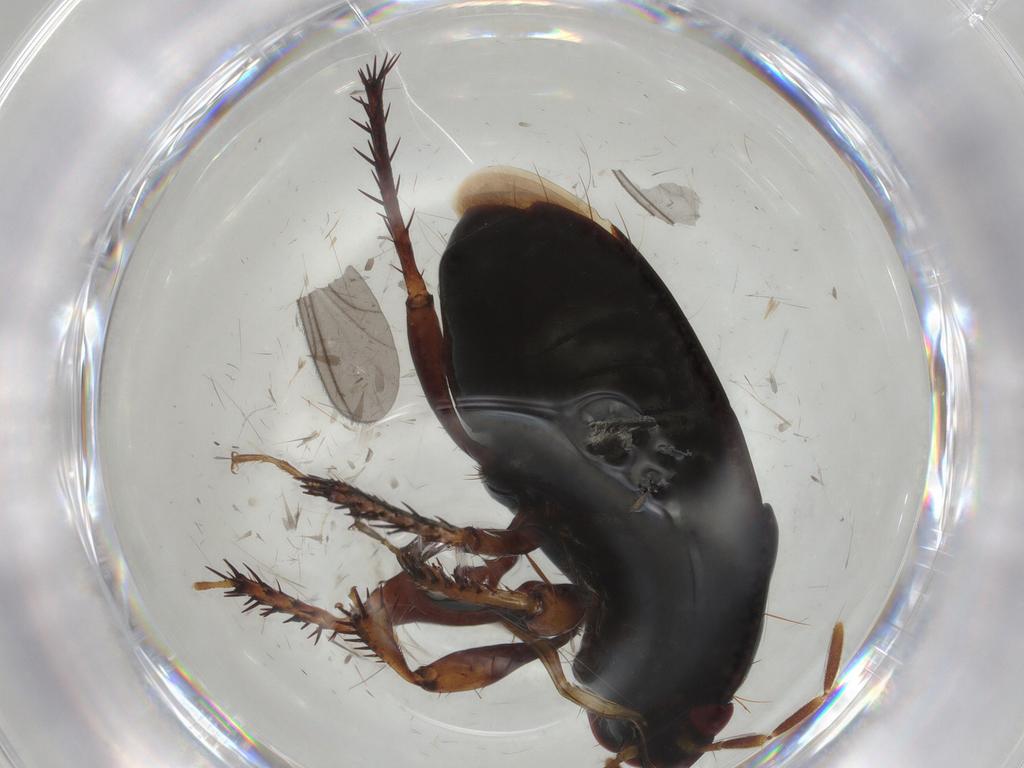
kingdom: Animalia
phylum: Arthropoda
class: Insecta
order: Hemiptera
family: Cydnidae
